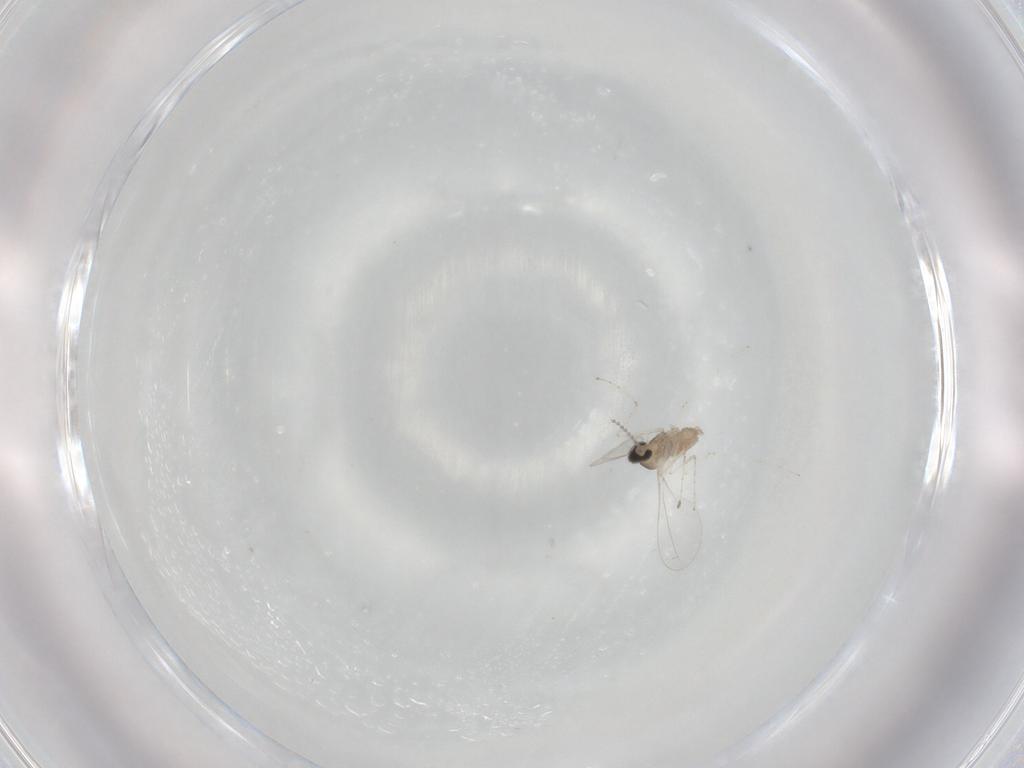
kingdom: Animalia
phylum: Arthropoda
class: Insecta
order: Diptera
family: Cecidomyiidae
